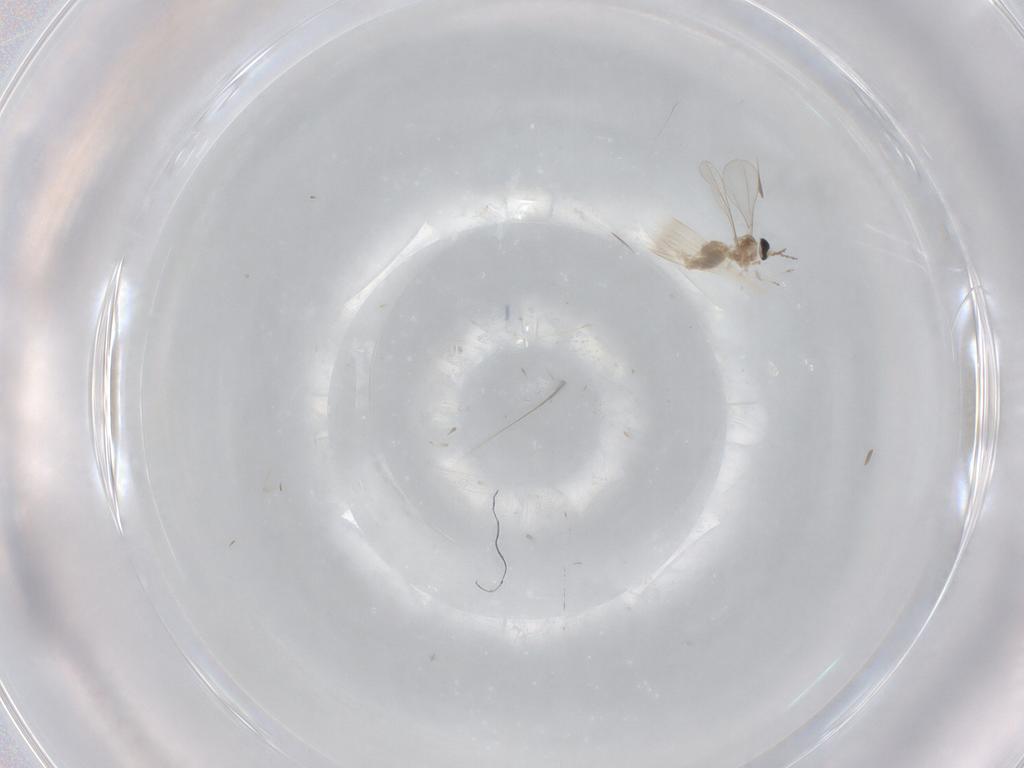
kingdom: Animalia
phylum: Arthropoda
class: Insecta
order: Diptera
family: Cecidomyiidae
